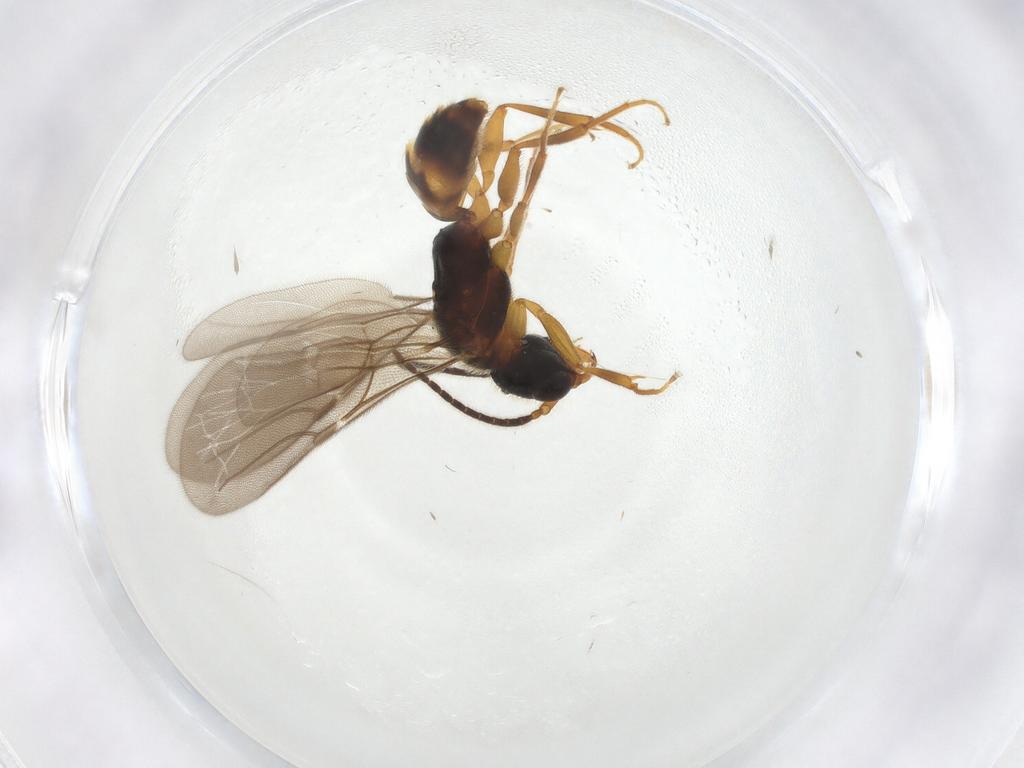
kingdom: Animalia
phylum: Arthropoda
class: Insecta
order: Hymenoptera
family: Bethylidae
